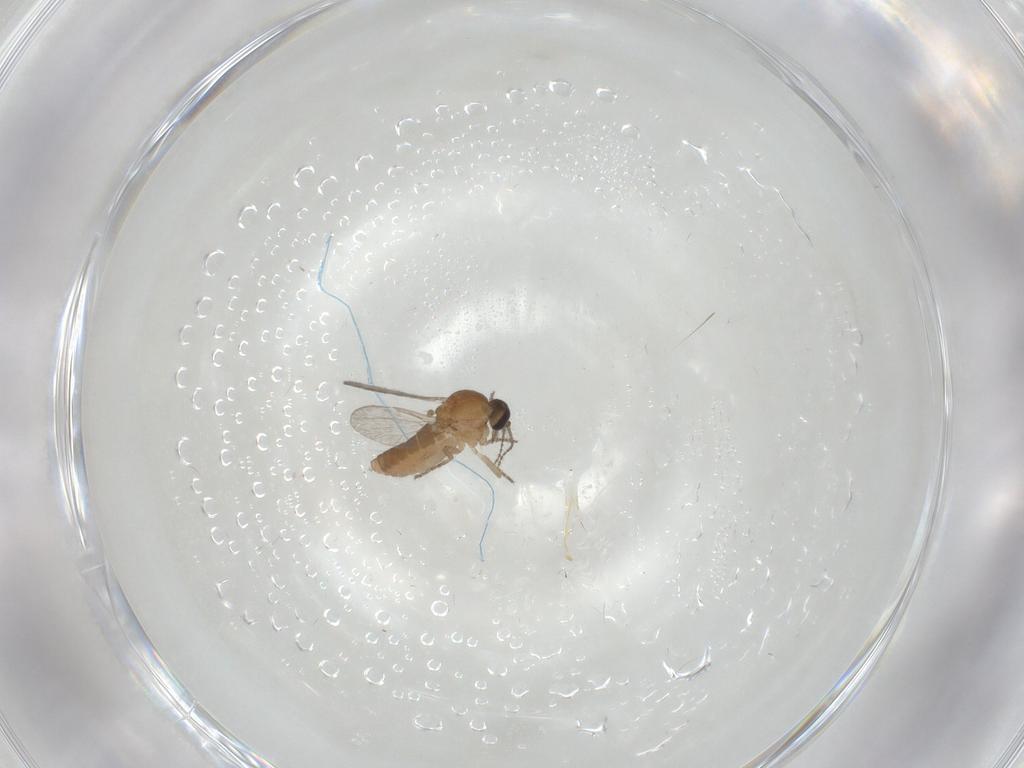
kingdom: Animalia
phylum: Arthropoda
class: Insecta
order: Diptera
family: Ceratopogonidae
